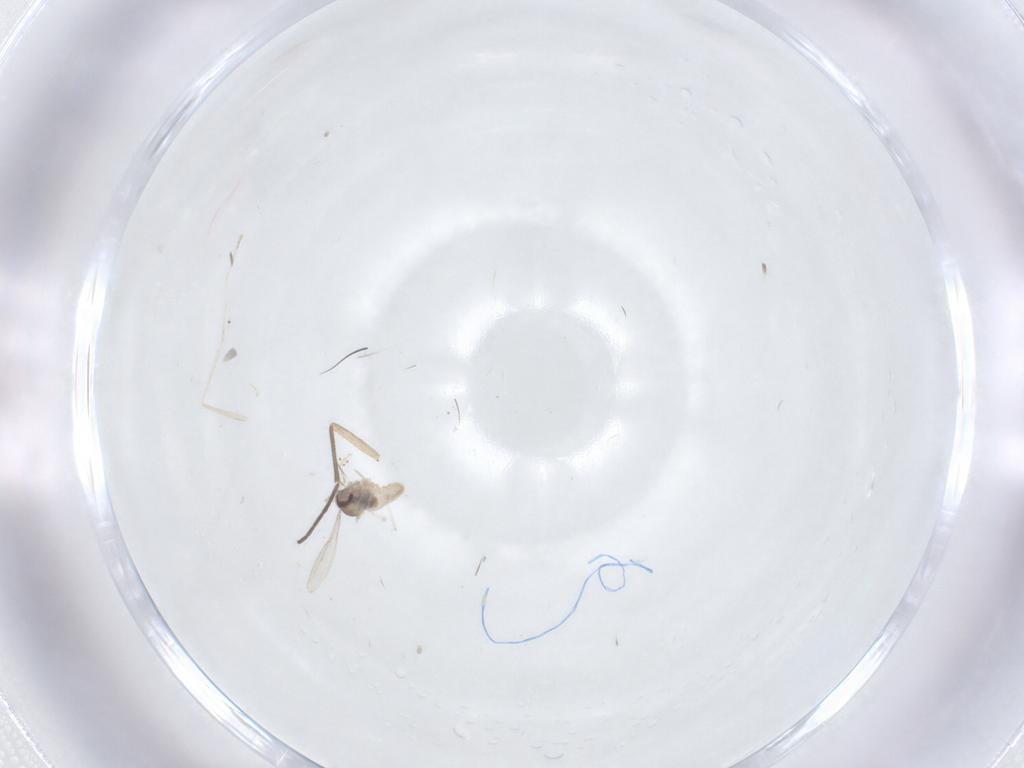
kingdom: Animalia
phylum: Arthropoda
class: Insecta
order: Diptera
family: Sciaridae
